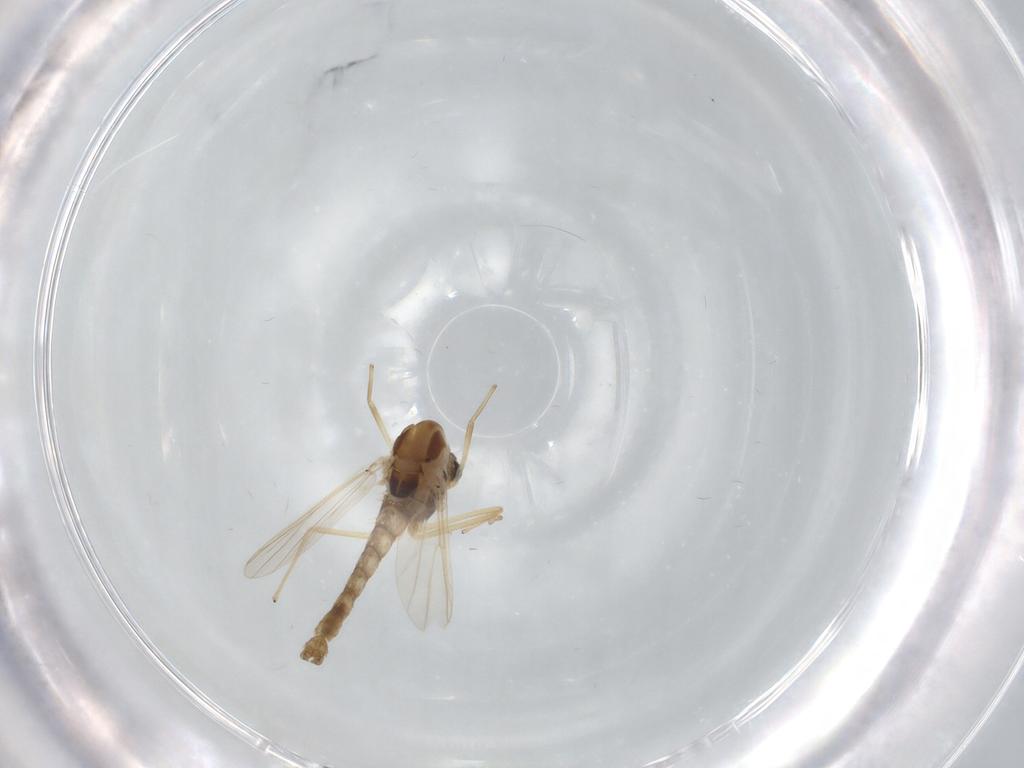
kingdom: Animalia
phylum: Arthropoda
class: Insecta
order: Diptera
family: Chironomidae
